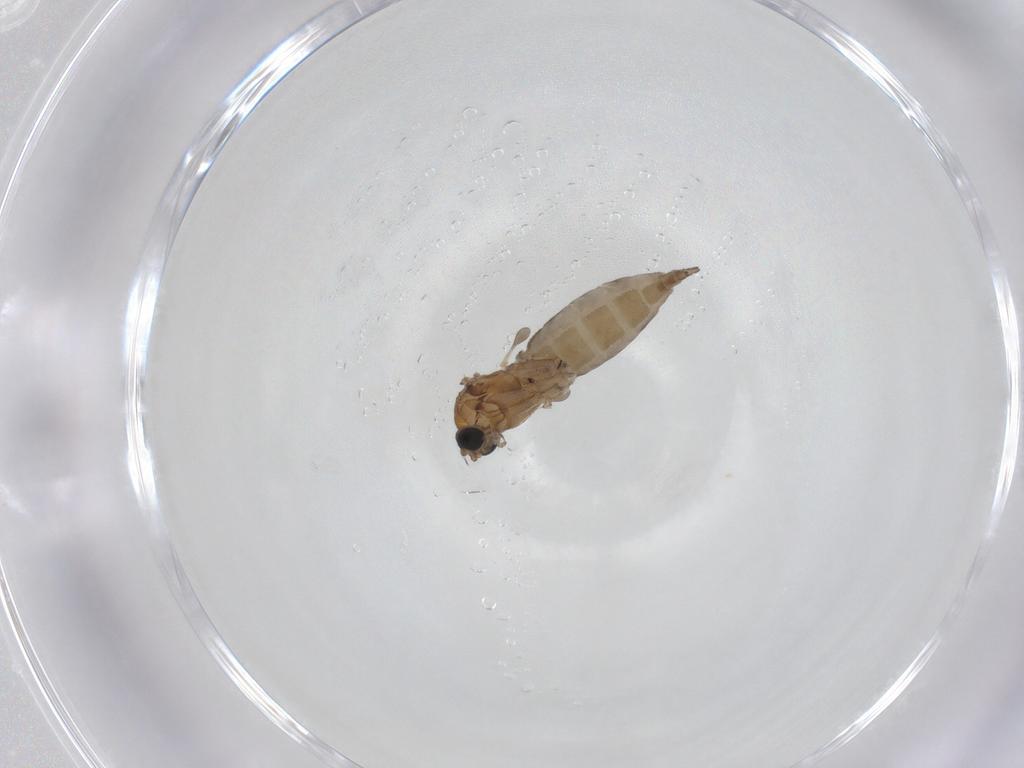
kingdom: Animalia
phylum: Arthropoda
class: Insecta
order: Diptera
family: Sciaridae
